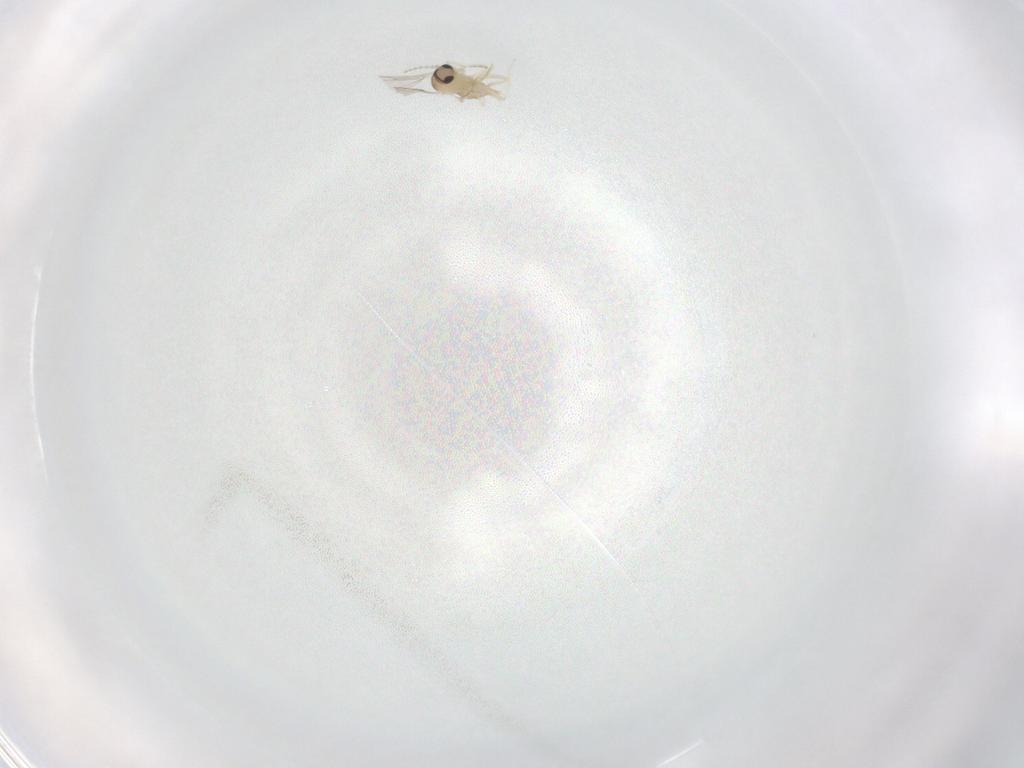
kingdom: Animalia
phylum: Arthropoda
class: Insecta
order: Diptera
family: Cecidomyiidae
